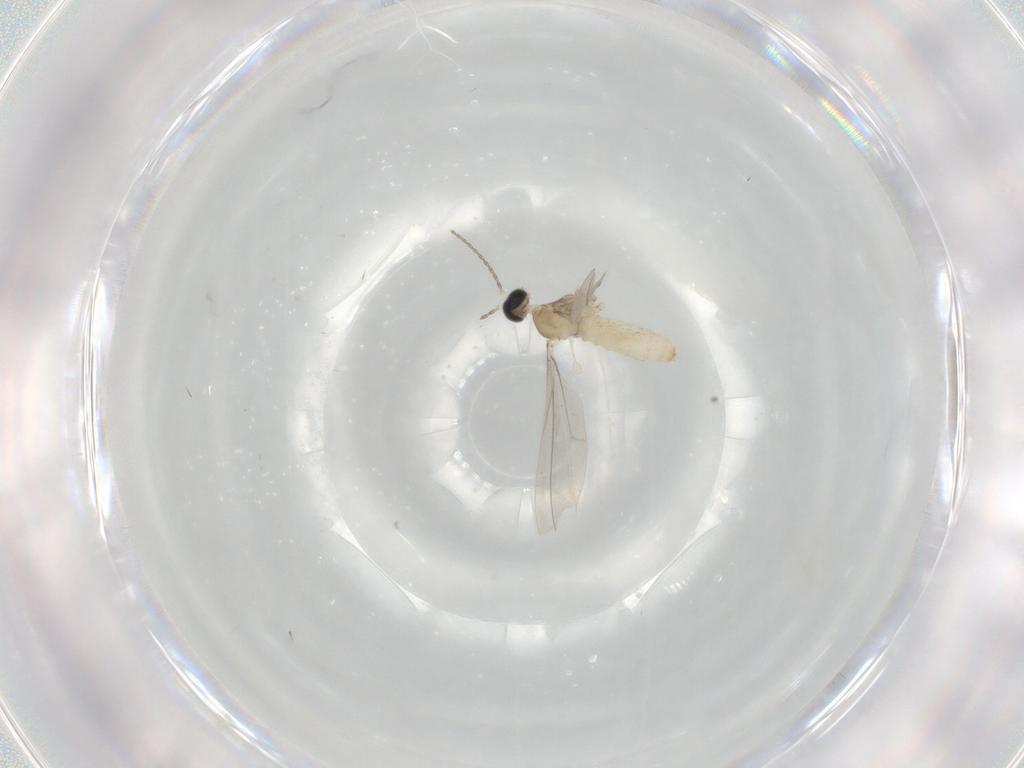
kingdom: Animalia
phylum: Arthropoda
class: Insecta
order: Diptera
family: Cecidomyiidae
